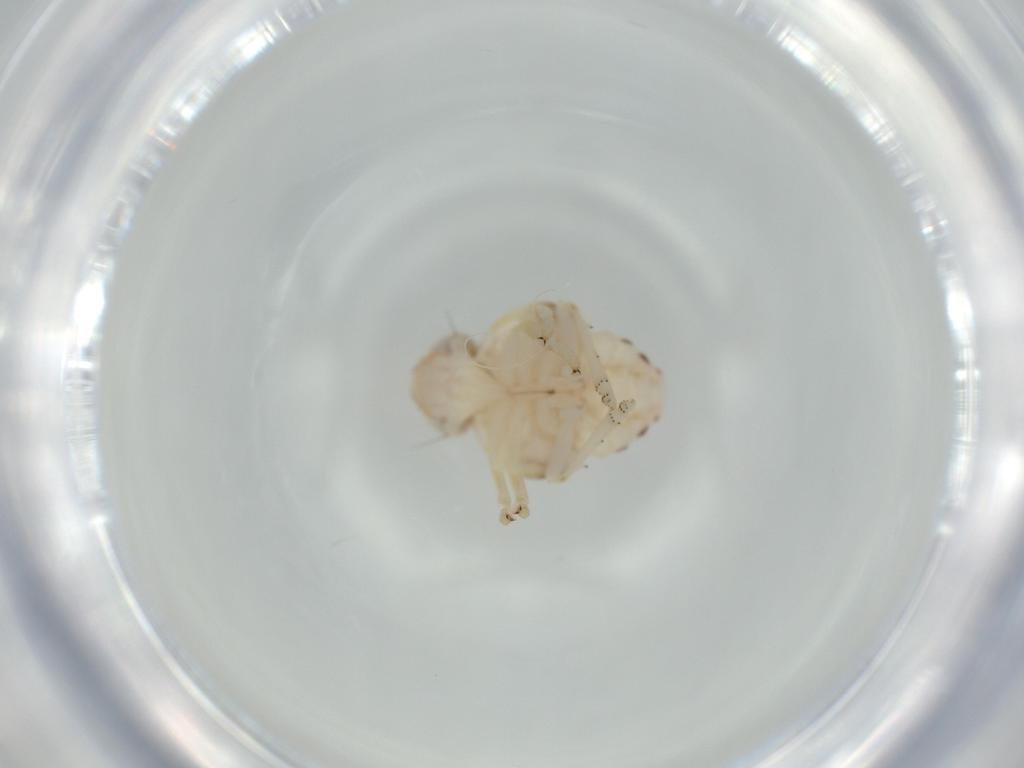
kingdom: Animalia
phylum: Arthropoda
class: Insecta
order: Hemiptera
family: Nogodinidae
